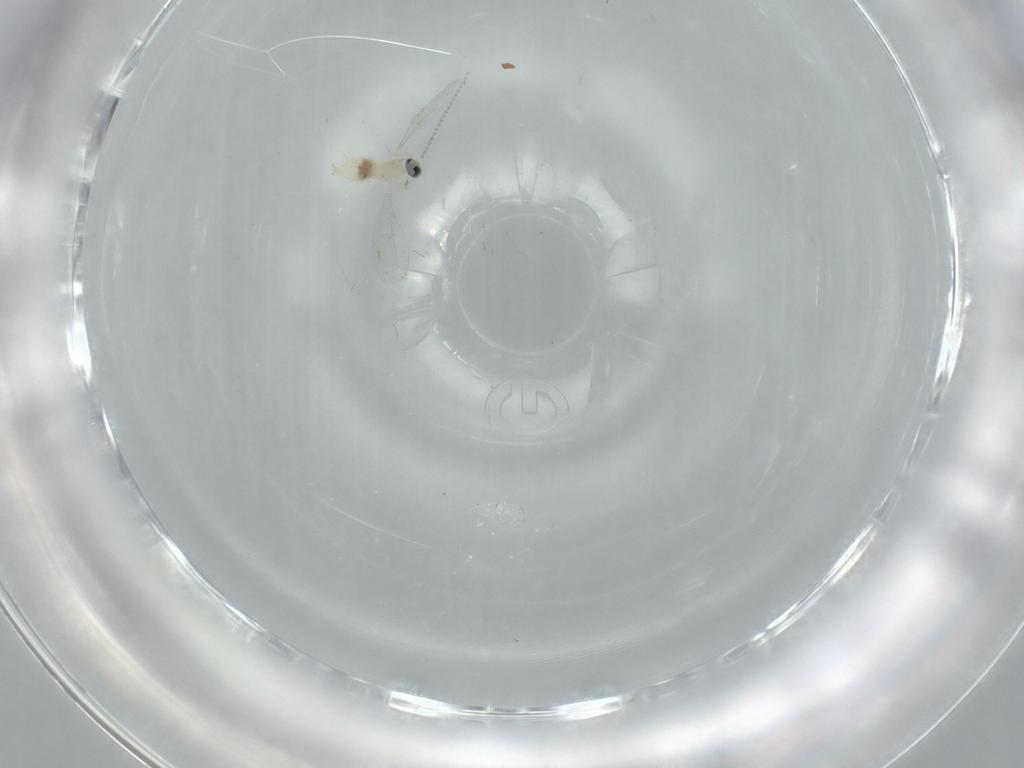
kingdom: Animalia
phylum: Arthropoda
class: Insecta
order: Diptera
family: Cecidomyiidae
